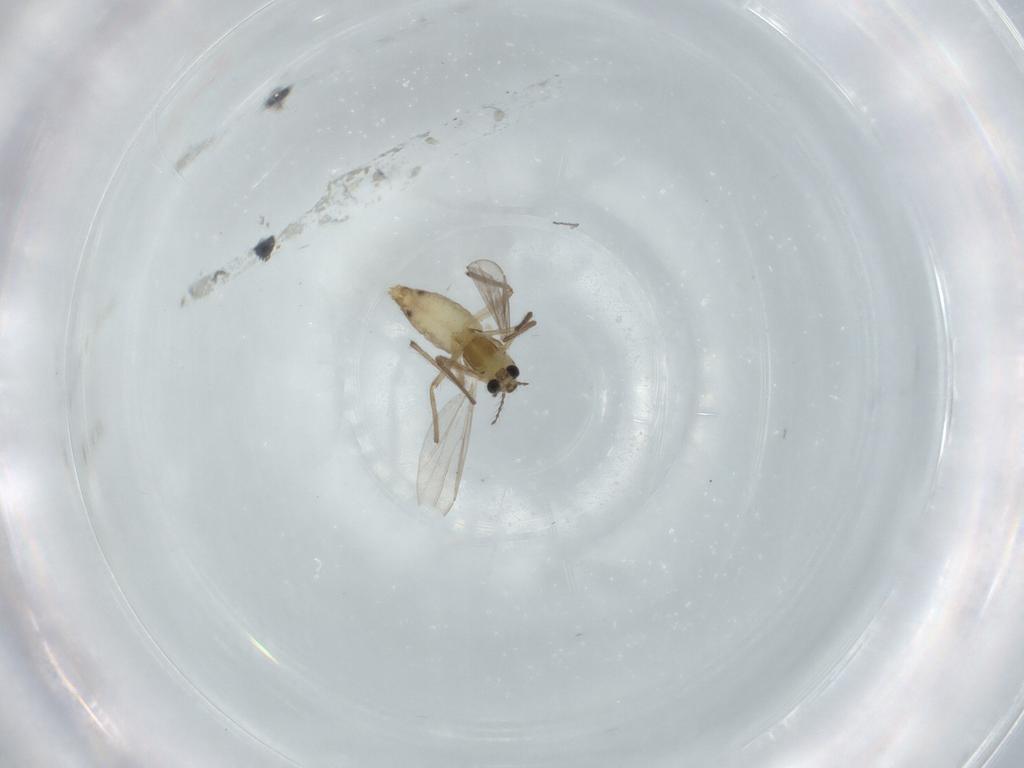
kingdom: Animalia
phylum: Arthropoda
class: Insecta
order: Diptera
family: Chironomidae
